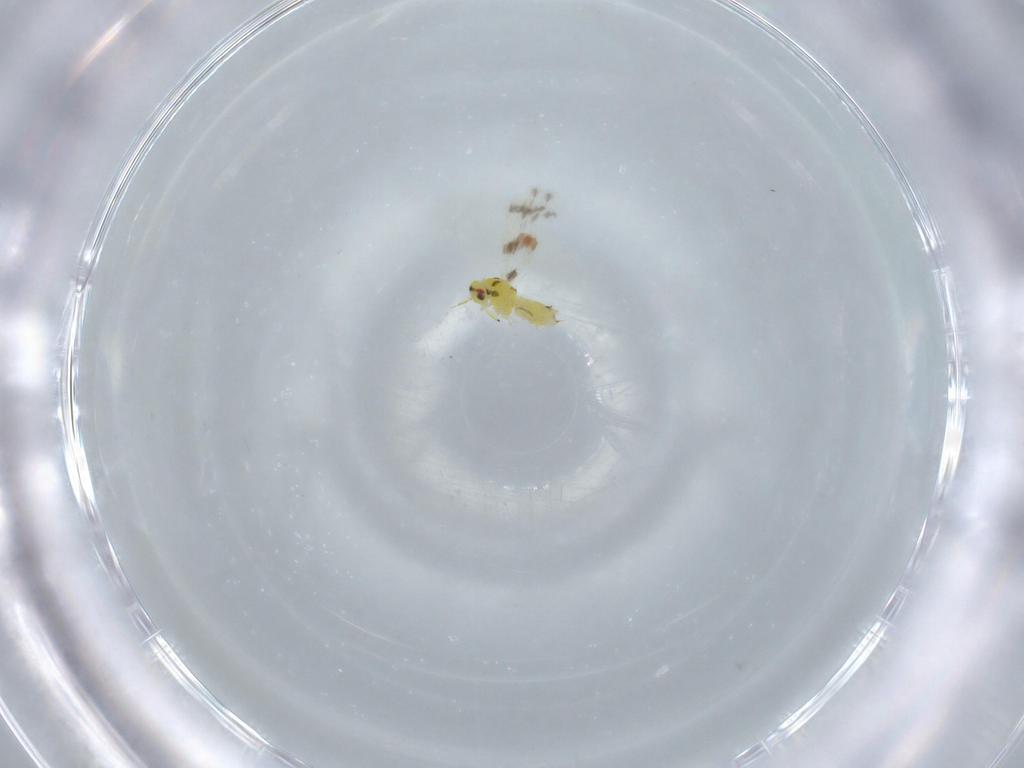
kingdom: Animalia
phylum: Arthropoda
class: Insecta
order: Hemiptera
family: Aleyrodidae
